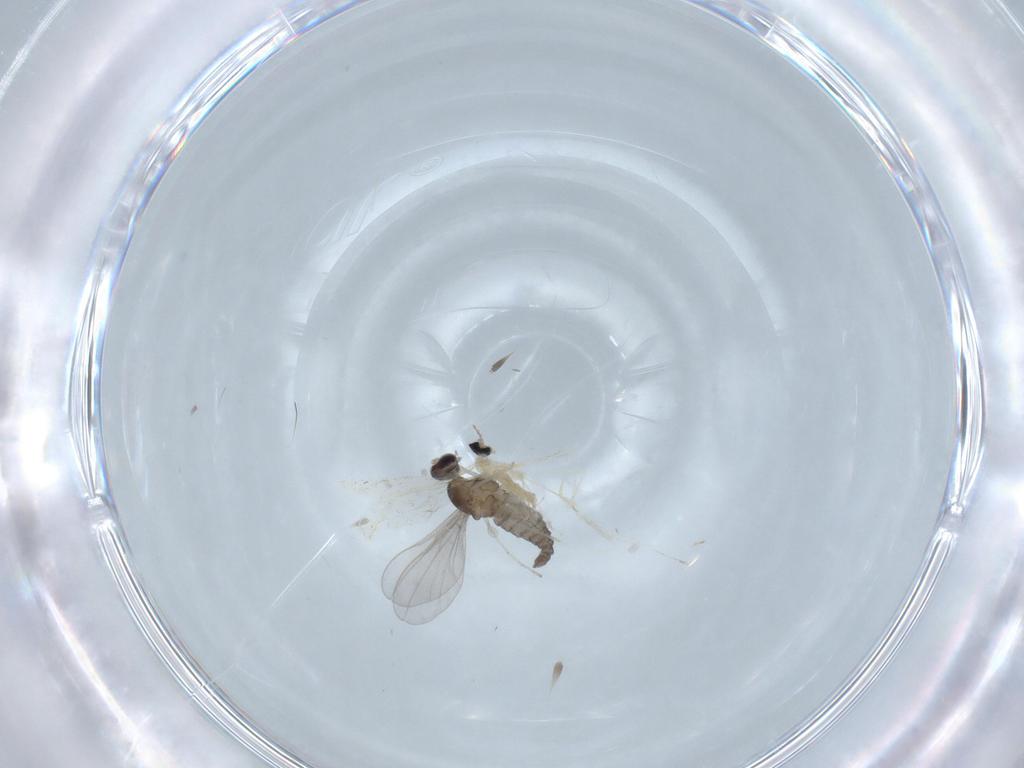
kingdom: Animalia
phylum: Arthropoda
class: Insecta
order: Diptera
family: Cecidomyiidae
